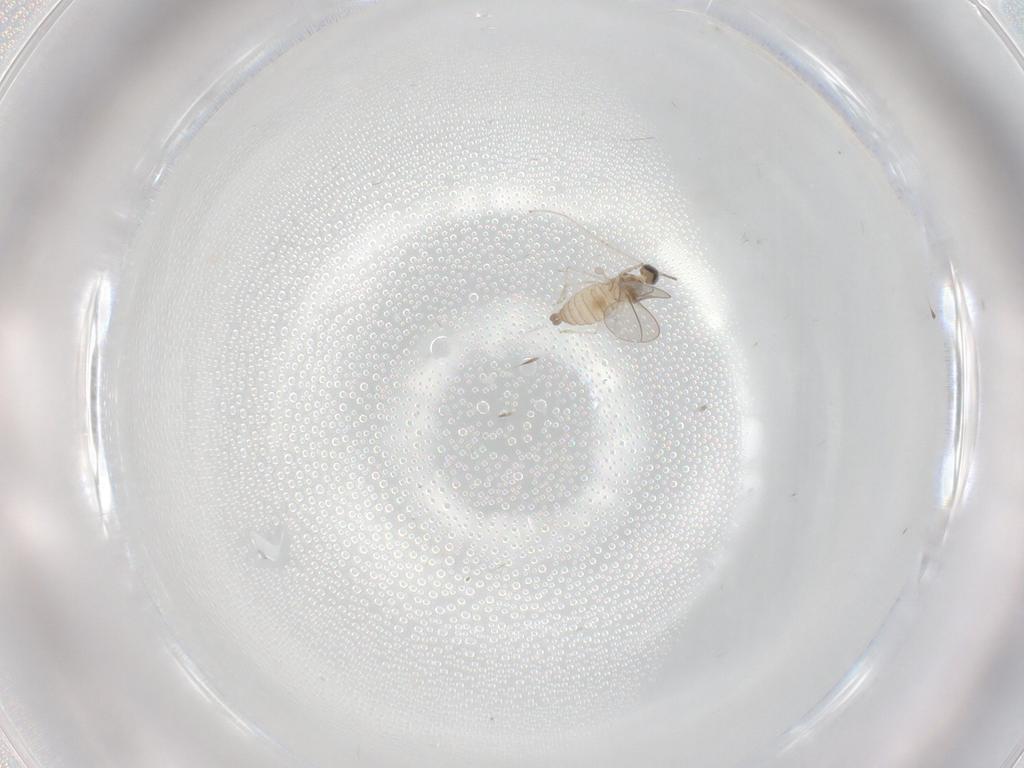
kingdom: Animalia
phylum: Arthropoda
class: Insecta
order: Diptera
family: Cecidomyiidae
